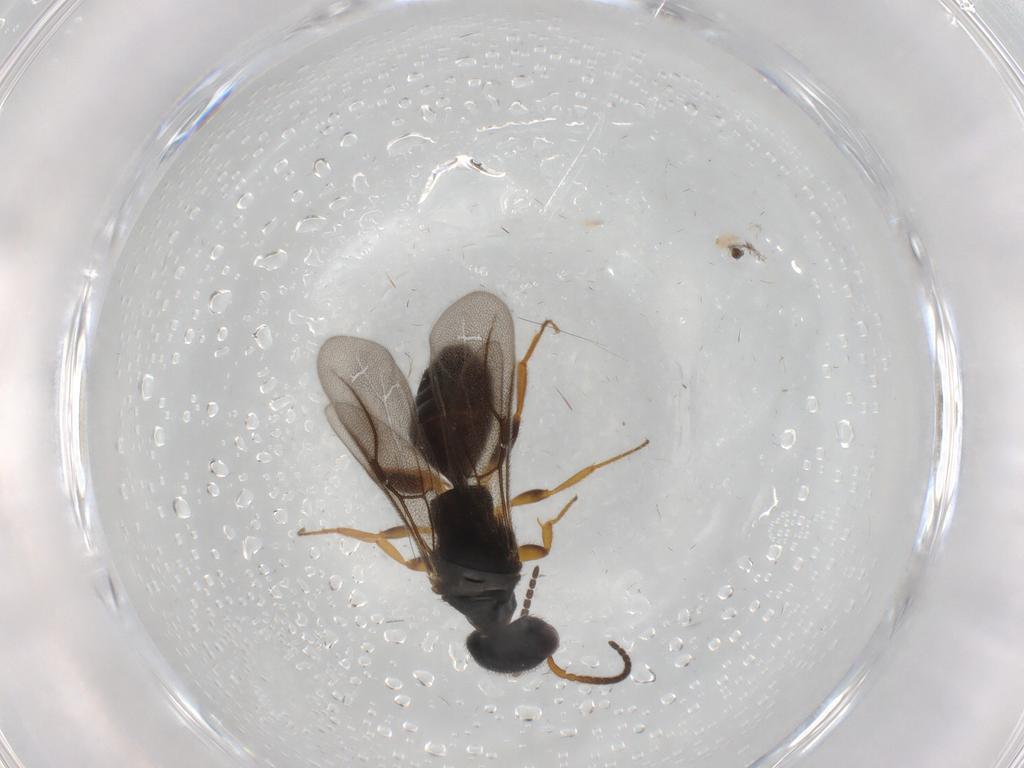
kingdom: Animalia
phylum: Arthropoda
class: Insecta
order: Hymenoptera
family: Bethylidae
